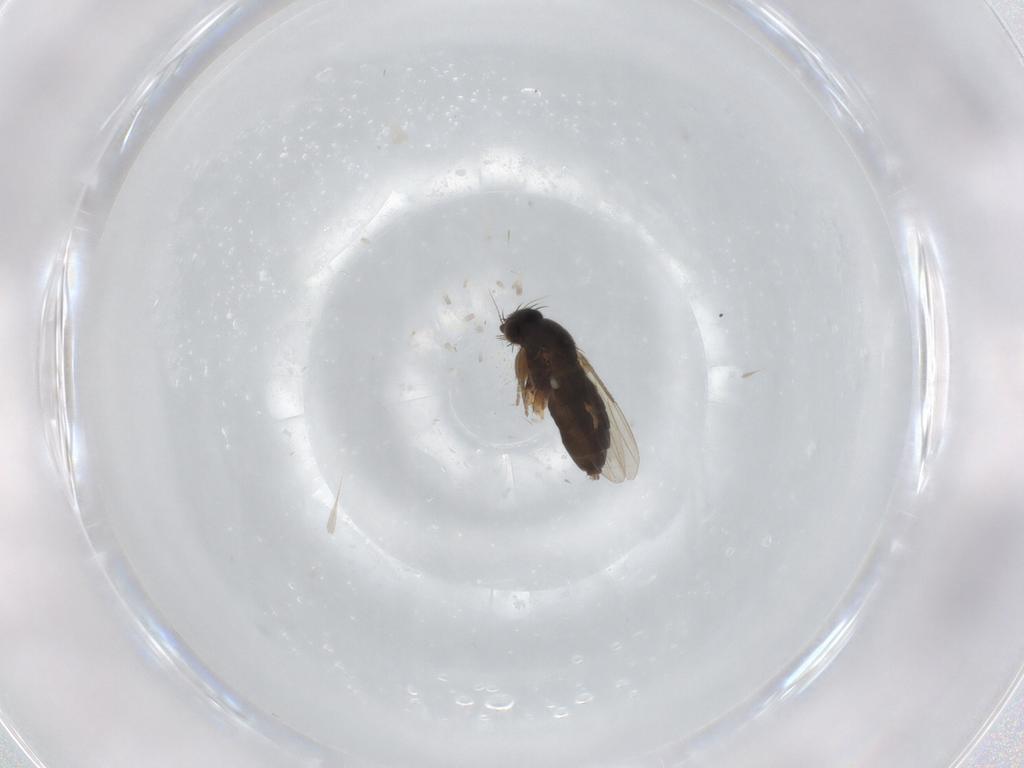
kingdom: Animalia
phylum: Arthropoda
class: Insecta
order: Diptera
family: Phoridae
